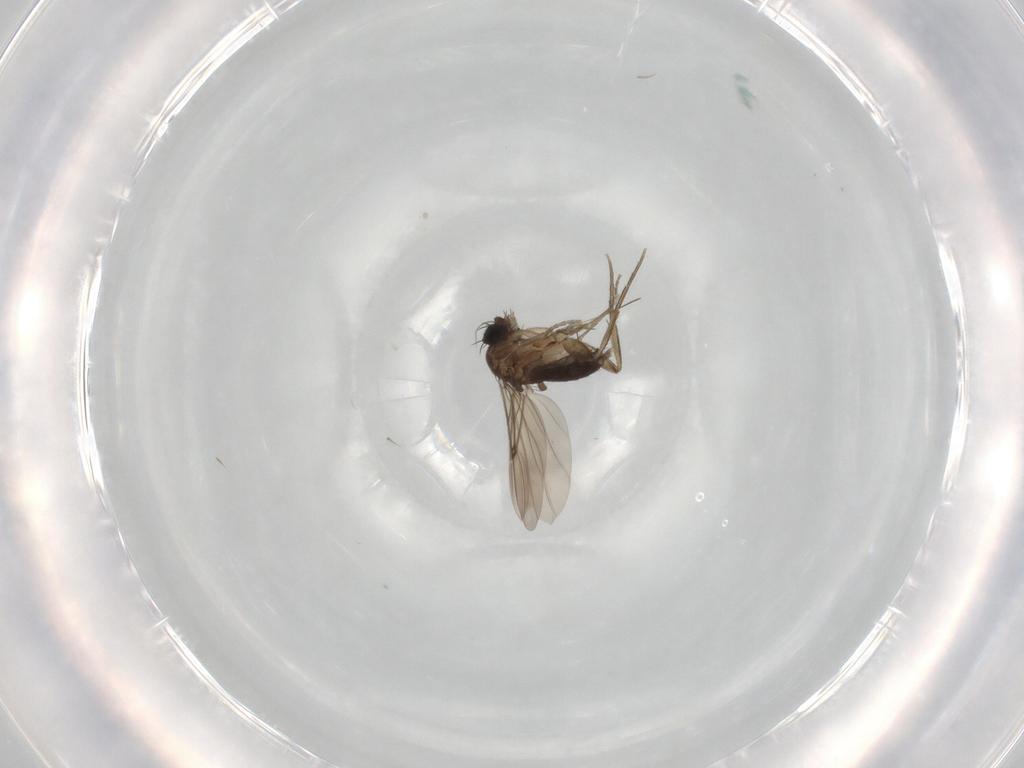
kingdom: Animalia
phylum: Arthropoda
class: Insecta
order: Diptera
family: Phoridae
